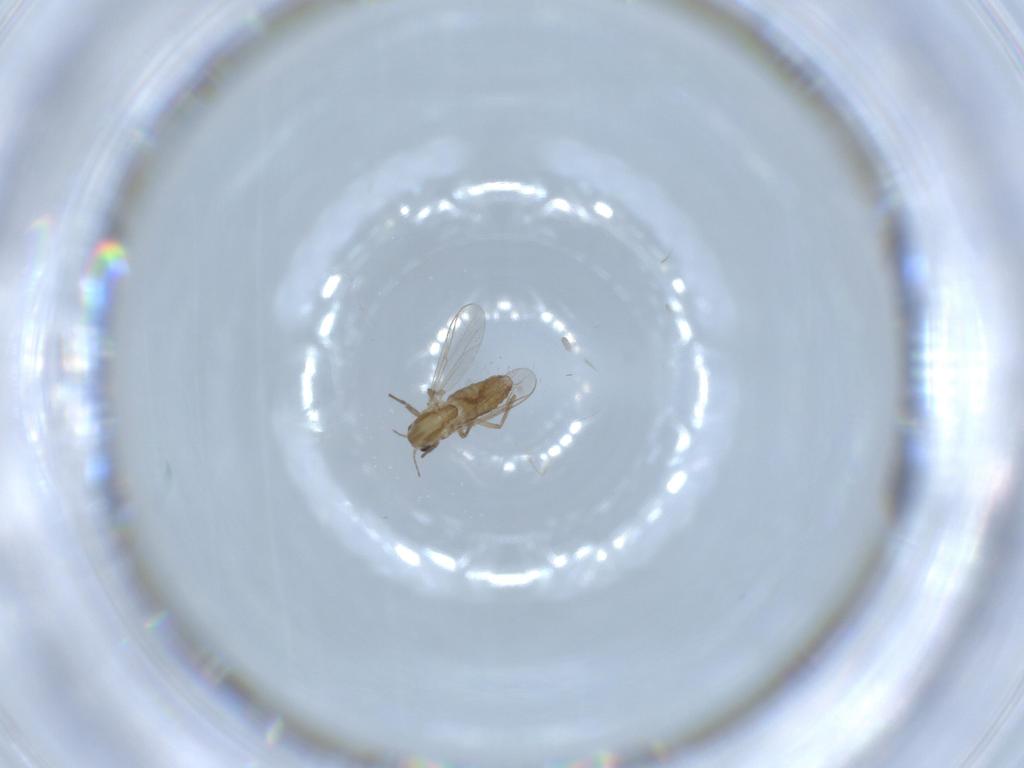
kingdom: Animalia
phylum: Arthropoda
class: Insecta
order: Diptera
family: Chironomidae
